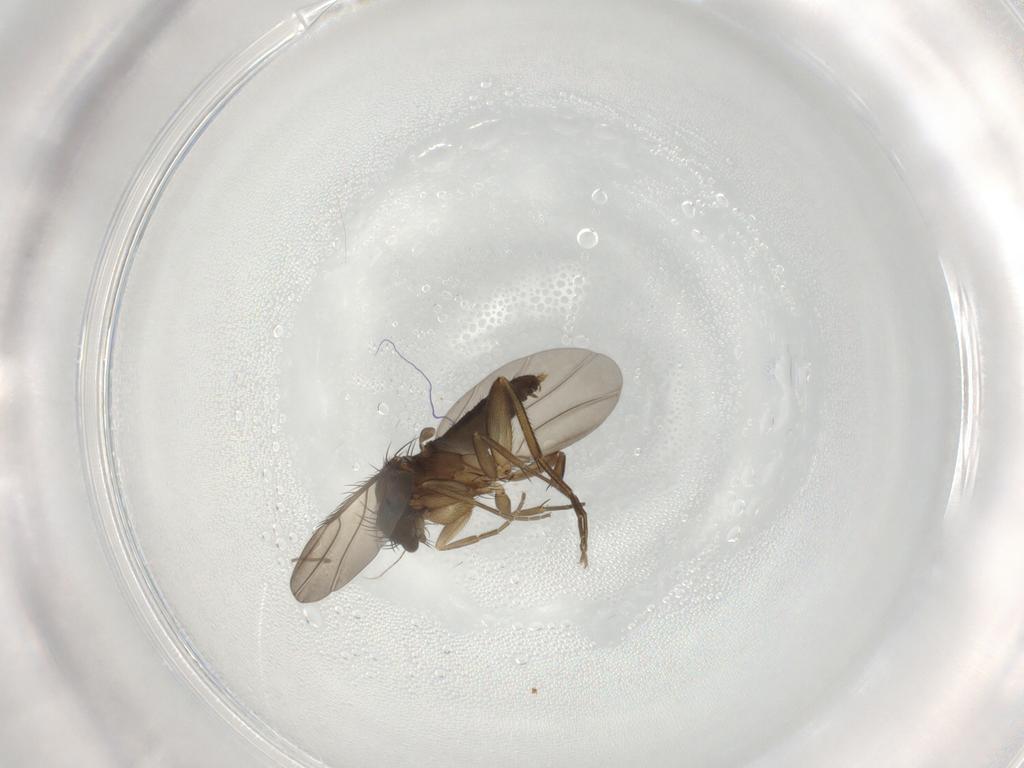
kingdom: Animalia
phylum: Arthropoda
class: Insecta
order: Diptera
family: Phoridae
